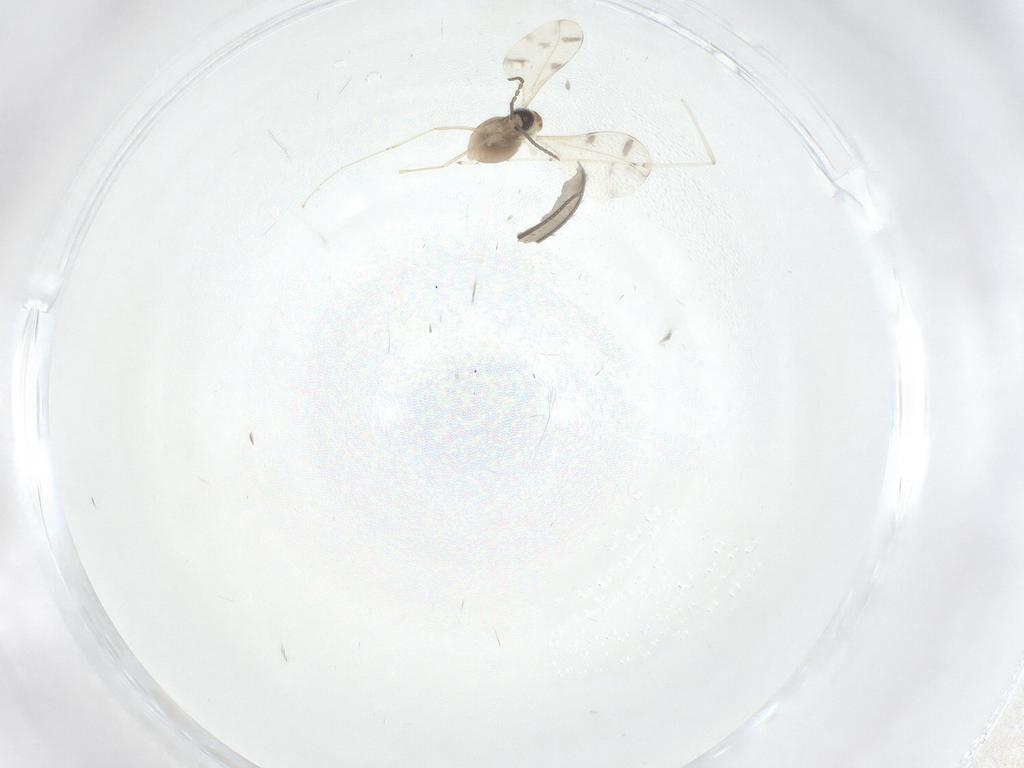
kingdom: Animalia
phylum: Arthropoda
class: Insecta
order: Diptera
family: Sciaridae
